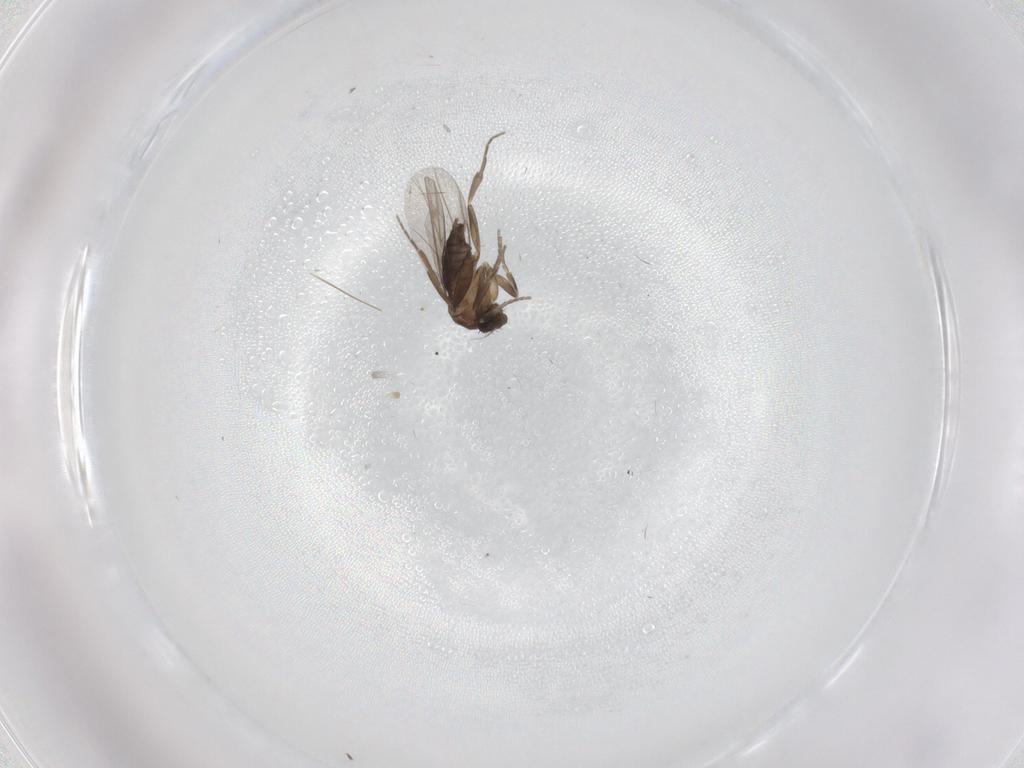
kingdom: Animalia
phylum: Arthropoda
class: Insecta
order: Diptera
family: Phoridae
